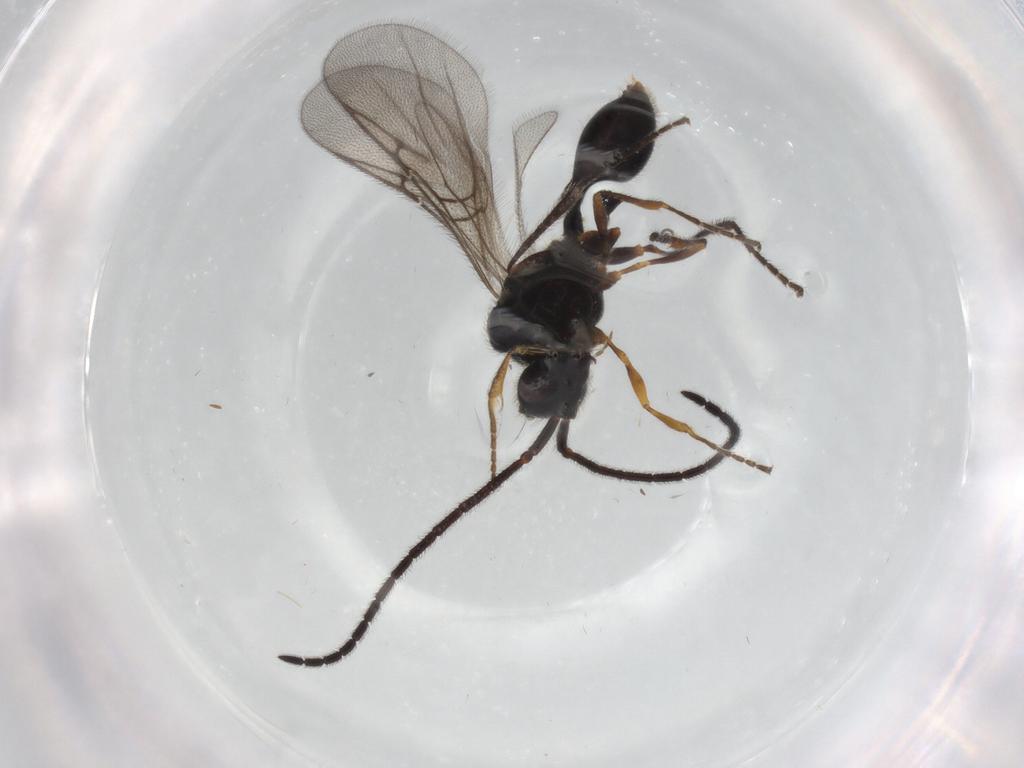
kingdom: Animalia
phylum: Arthropoda
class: Insecta
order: Hymenoptera
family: Diapriidae
